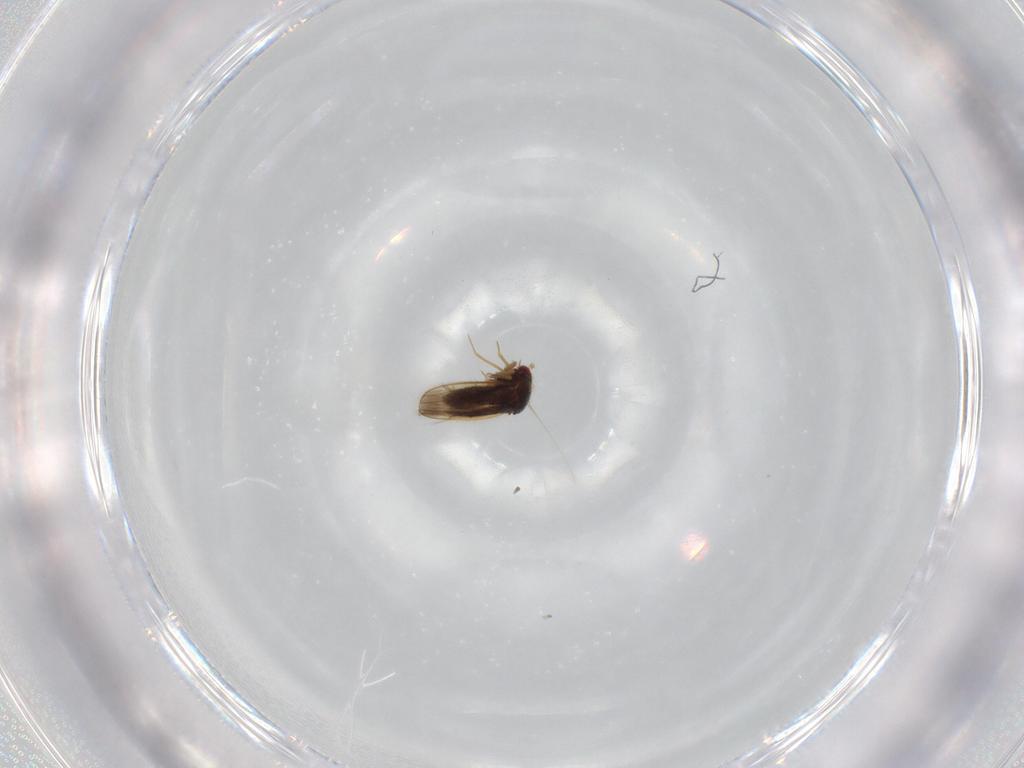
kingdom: Animalia
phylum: Arthropoda
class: Insecta
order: Hemiptera
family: Schizopteridae
